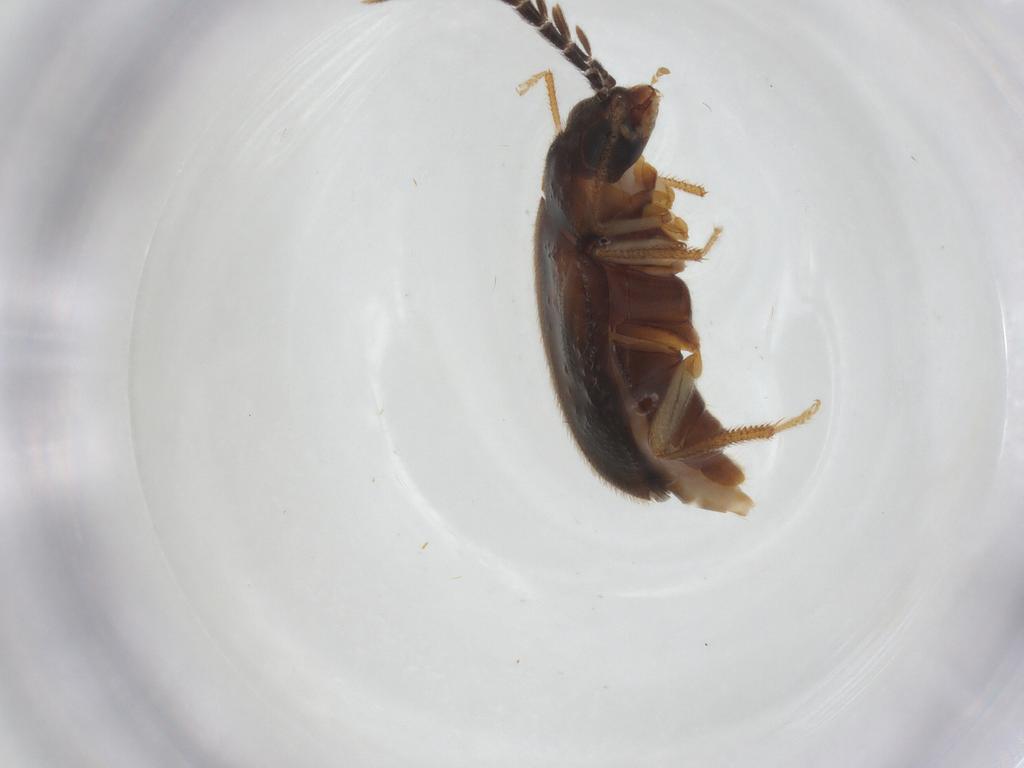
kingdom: Animalia
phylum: Arthropoda
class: Insecta
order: Coleoptera
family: Ptilodactylidae
